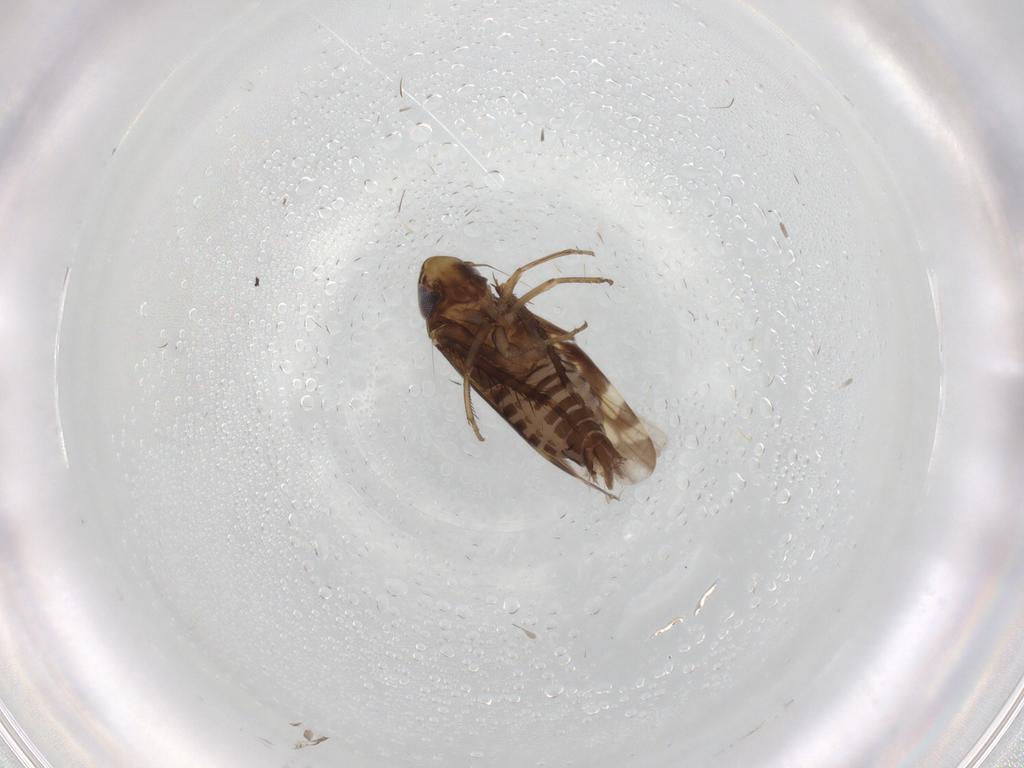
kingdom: Animalia
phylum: Arthropoda
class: Insecta
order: Hemiptera
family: Cicadellidae
